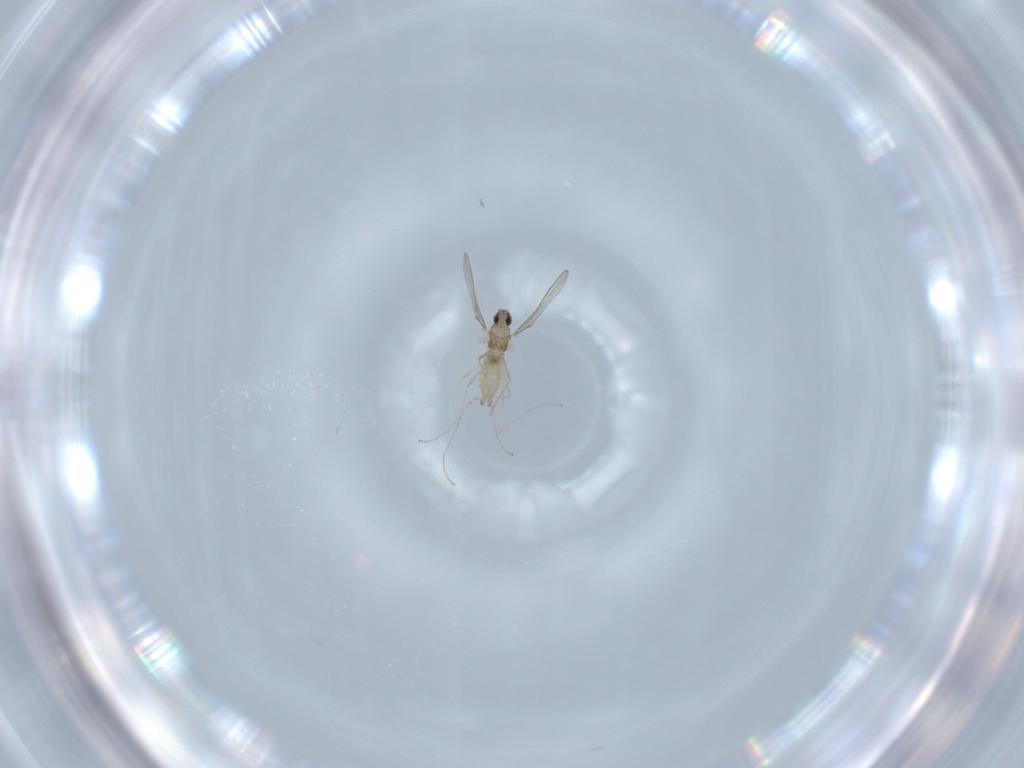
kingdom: Animalia
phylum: Arthropoda
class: Insecta
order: Diptera
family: Cecidomyiidae
